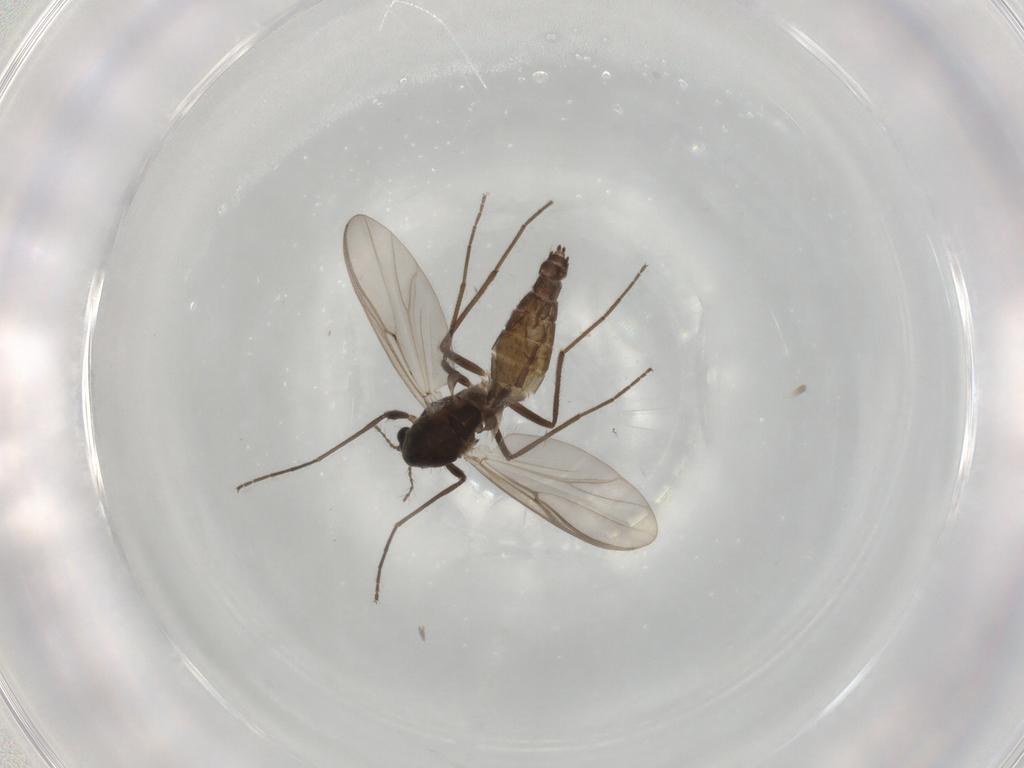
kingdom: Animalia
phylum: Arthropoda
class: Insecta
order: Diptera
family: Chironomidae
